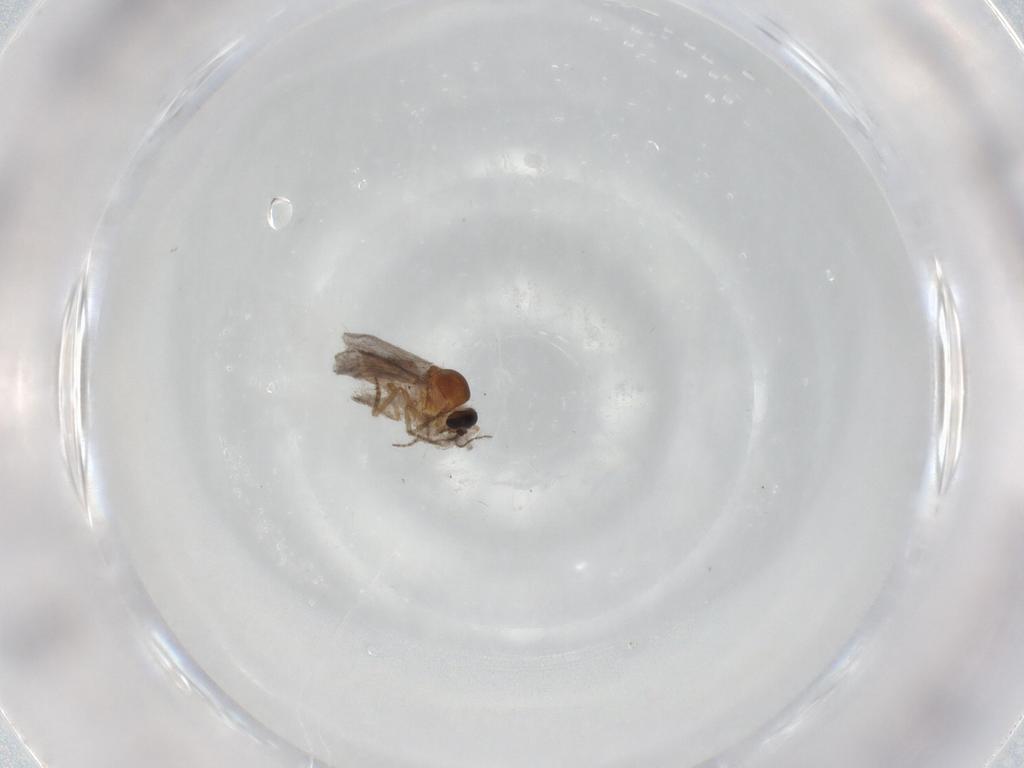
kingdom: Animalia
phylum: Arthropoda
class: Insecta
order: Diptera
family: Ceratopogonidae
